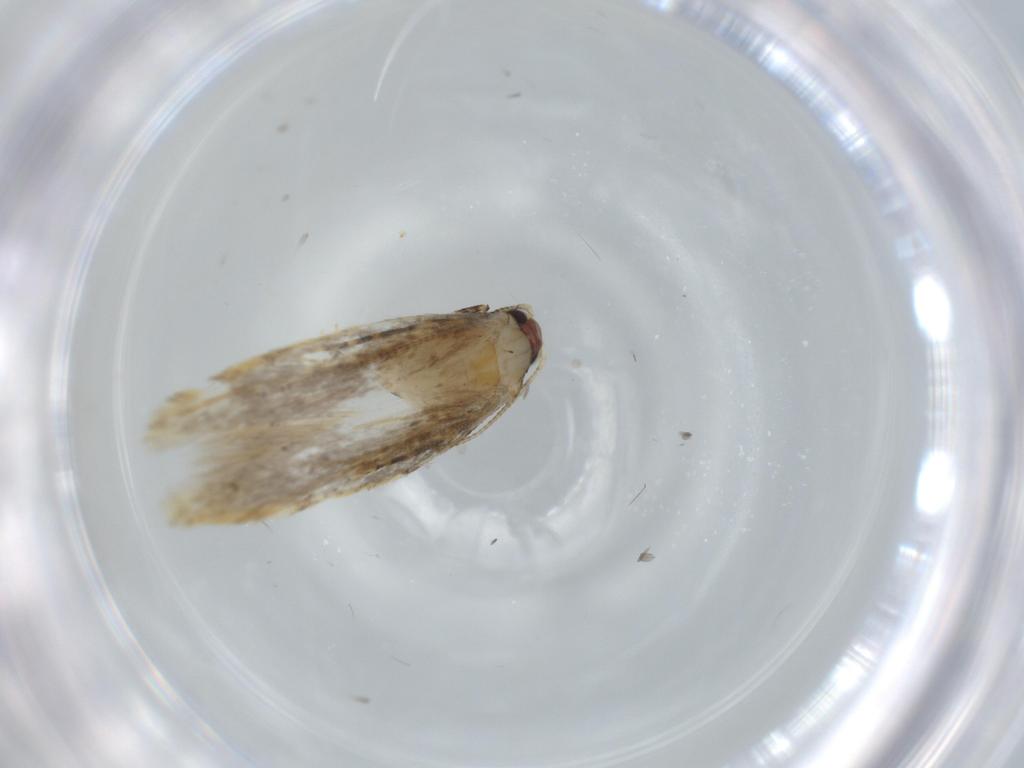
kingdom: Animalia
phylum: Arthropoda
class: Insecta
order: Lepidoptera
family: Tineidae
